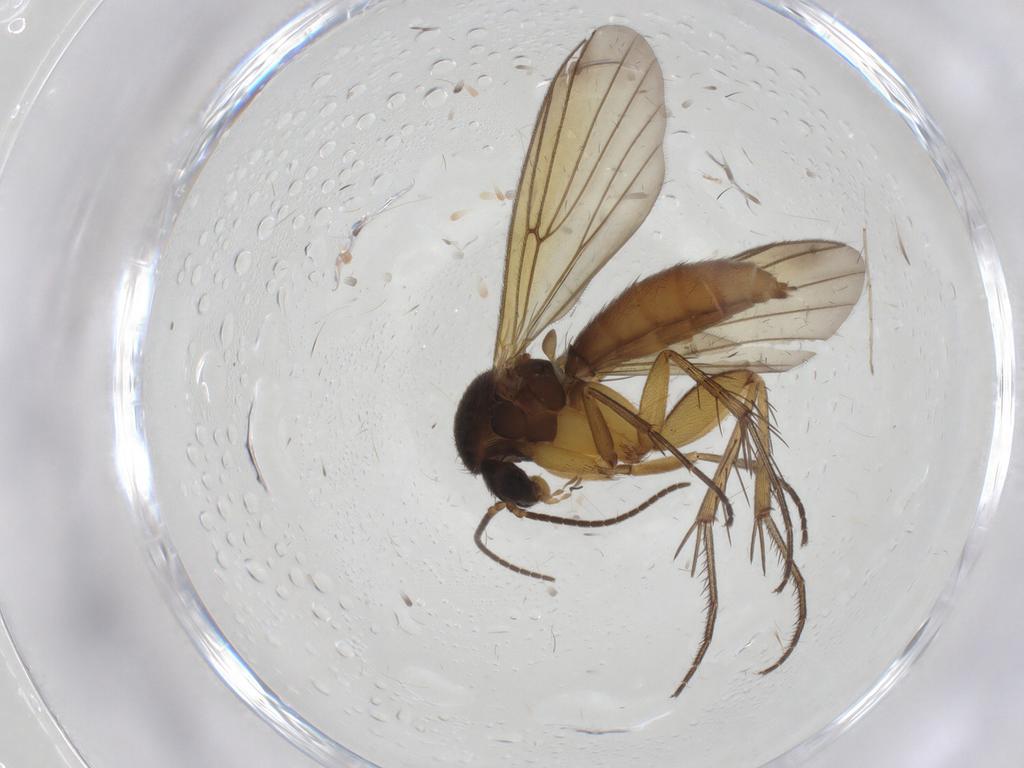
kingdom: Animalia
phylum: Arthropoda
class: Insecta
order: Diptera
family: Mycetophilidae
